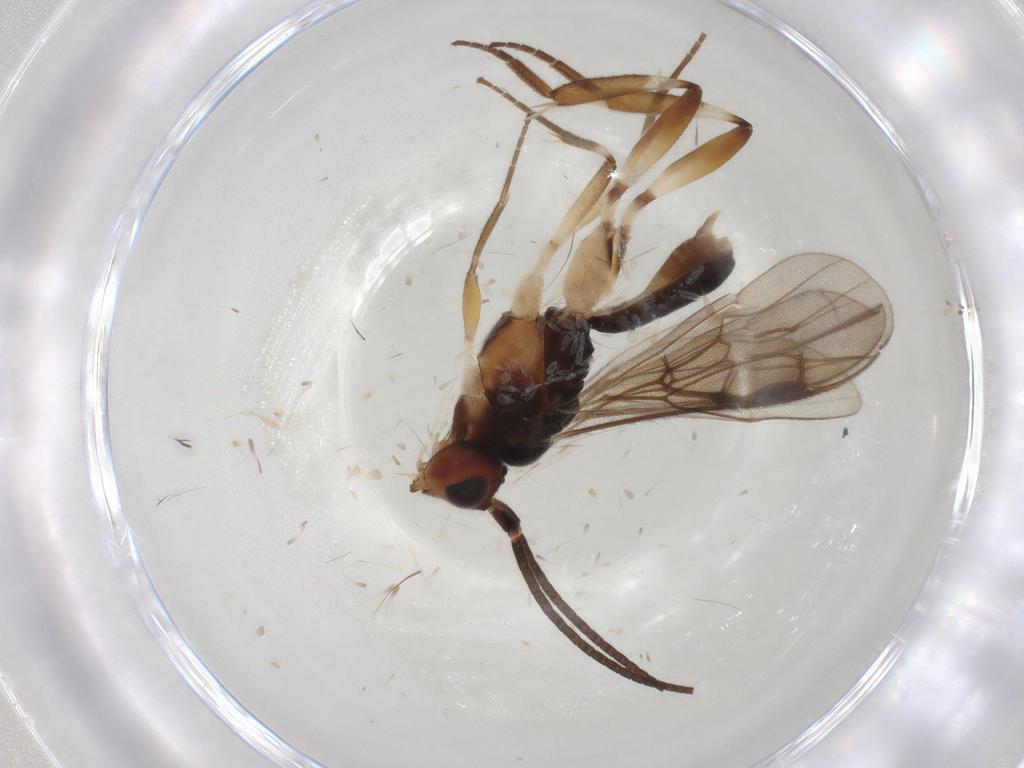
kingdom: Animalia
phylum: Arthropoda
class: Insecta
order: Hymenoptera
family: Braconidae
